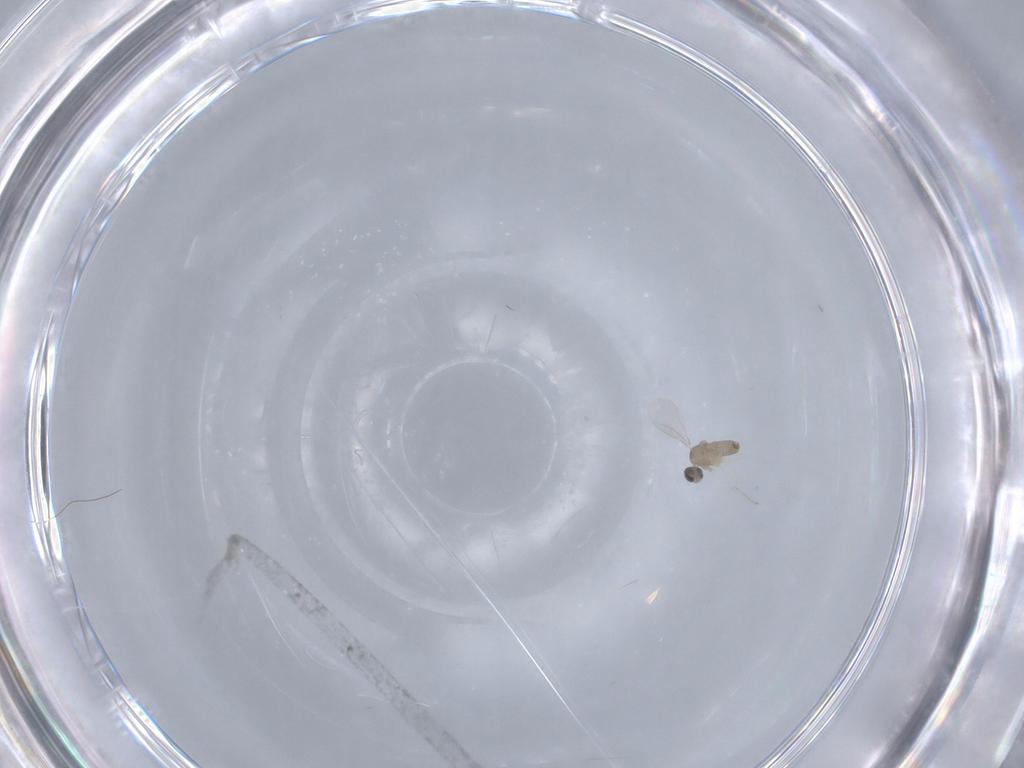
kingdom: Animalia
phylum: Arthropoda
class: Insecta
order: Diptera
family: Cecidomyiidae
